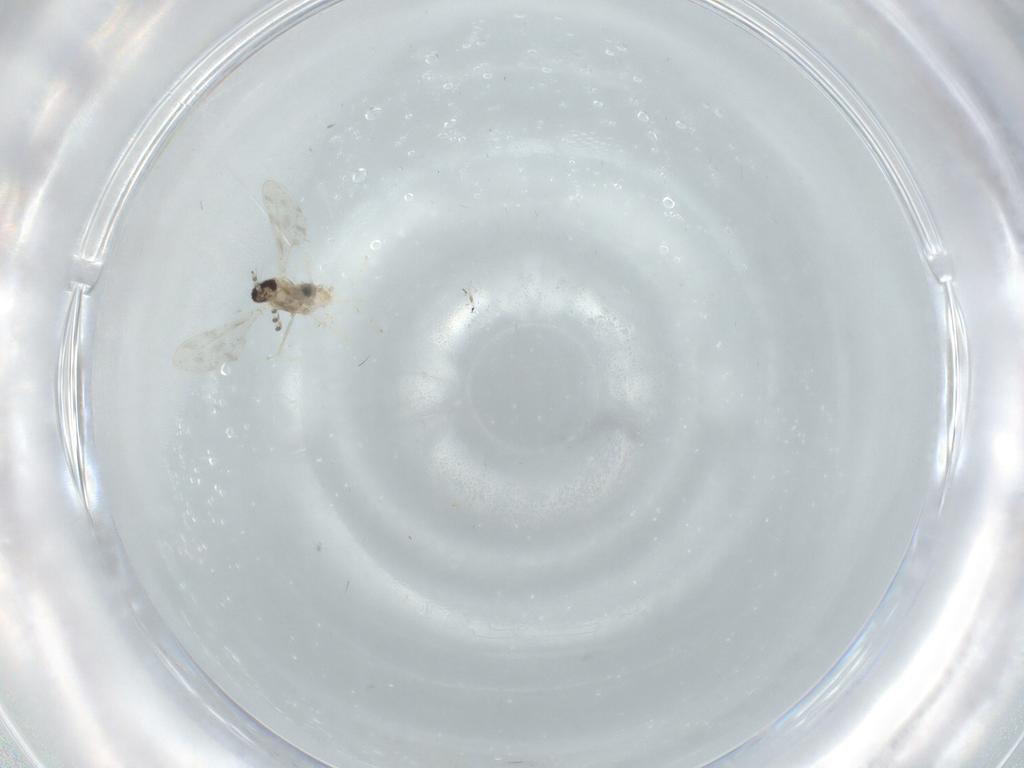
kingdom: Animalia
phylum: Arthropoda
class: Insecta
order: Diptera
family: Cecidomyiidae
